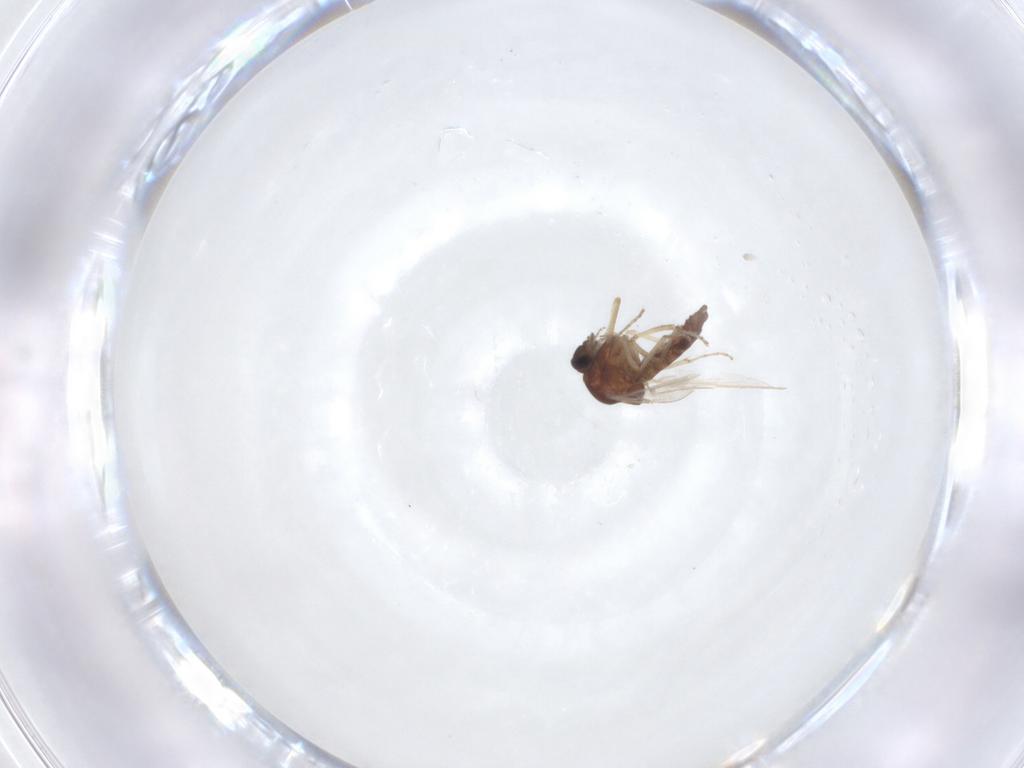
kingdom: Animalia
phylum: Arthropoda
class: Insecta
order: Diptera
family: Ceratopogonidae
